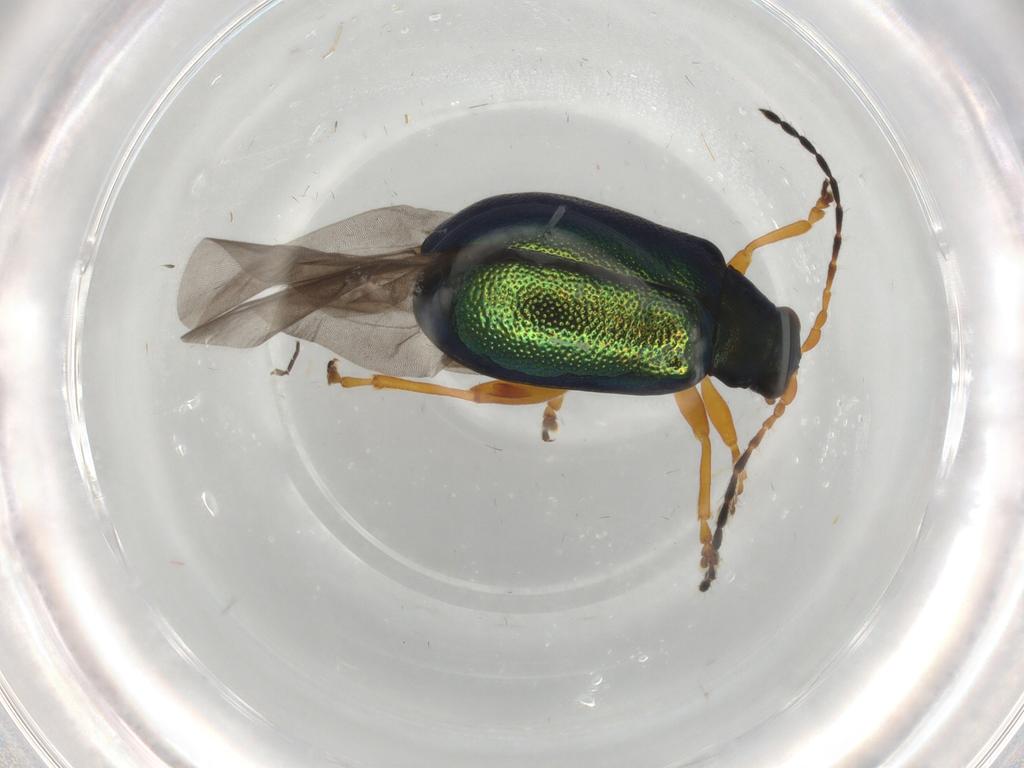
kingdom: Animalia
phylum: Arthropoda
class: Insecta
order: Coleoptera
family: Chrysomelidae
